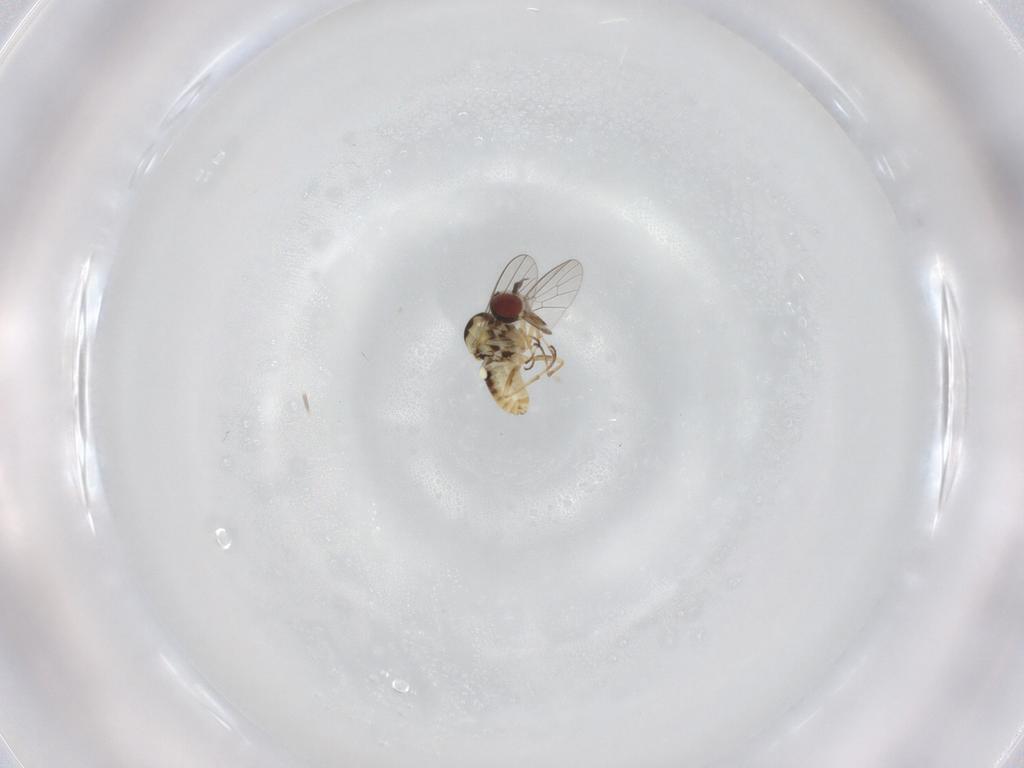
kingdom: Animalia
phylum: Arthropoda
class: Insecta
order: Diptera
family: Mythicomyiidae
